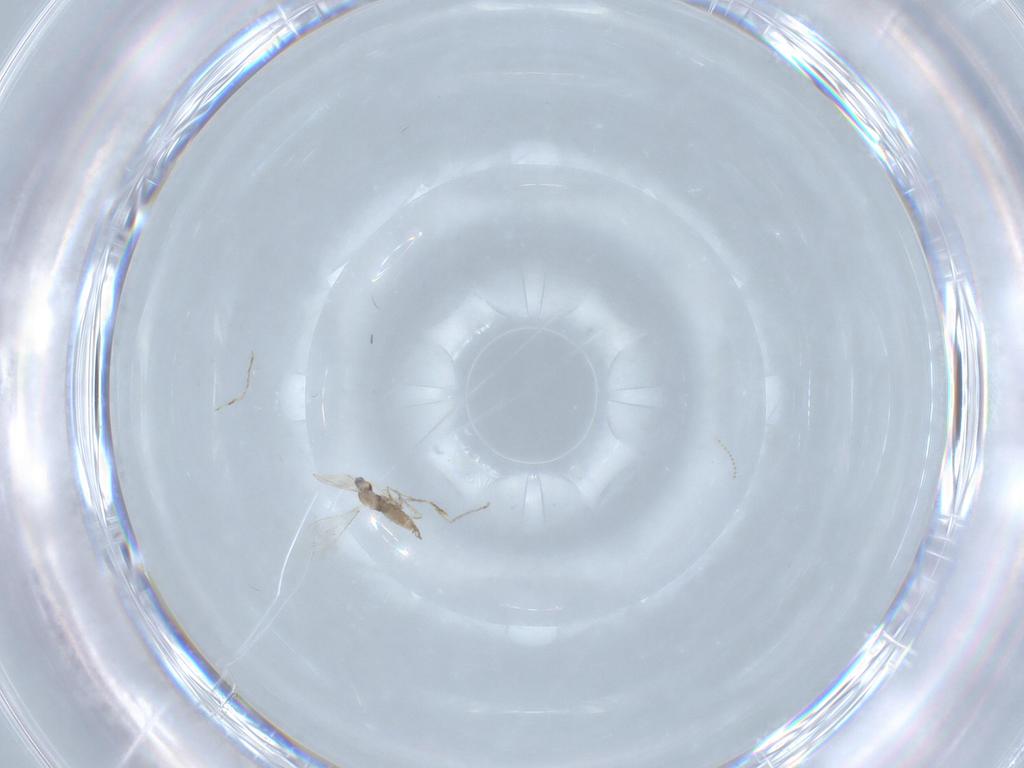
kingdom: Animalia
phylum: Arthropoda
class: Insecta
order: Diptera
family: Cecidomyiidae
